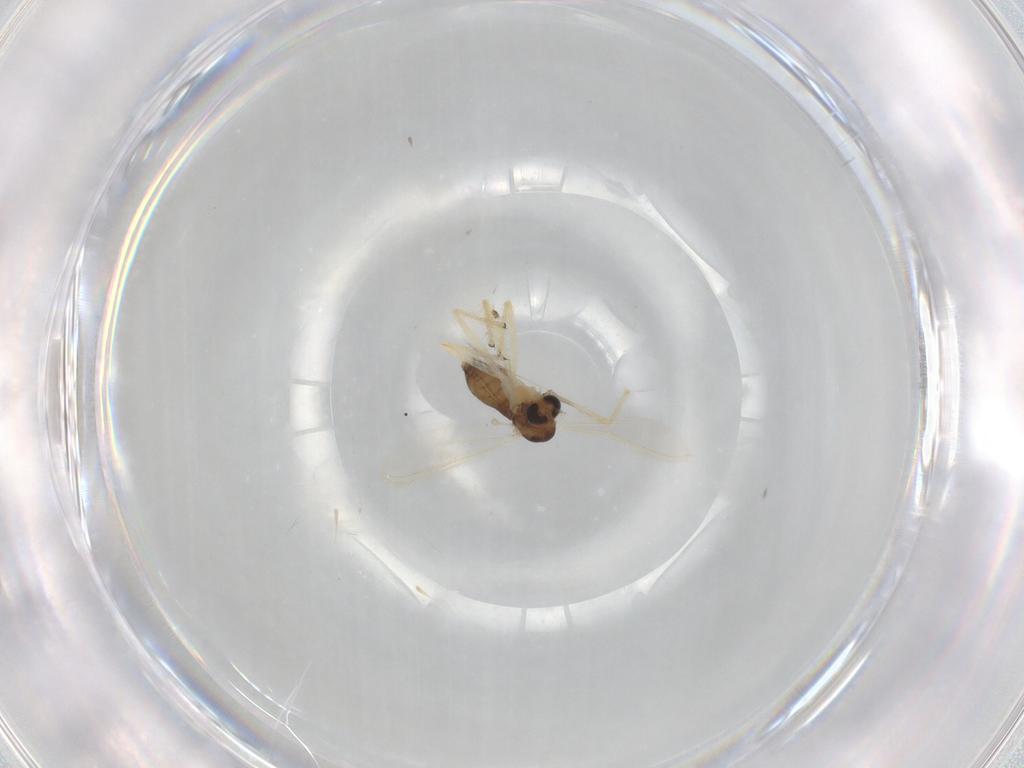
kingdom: Animalia
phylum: Arthropoda
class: Insecta
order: Diptera
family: Chironomidae
